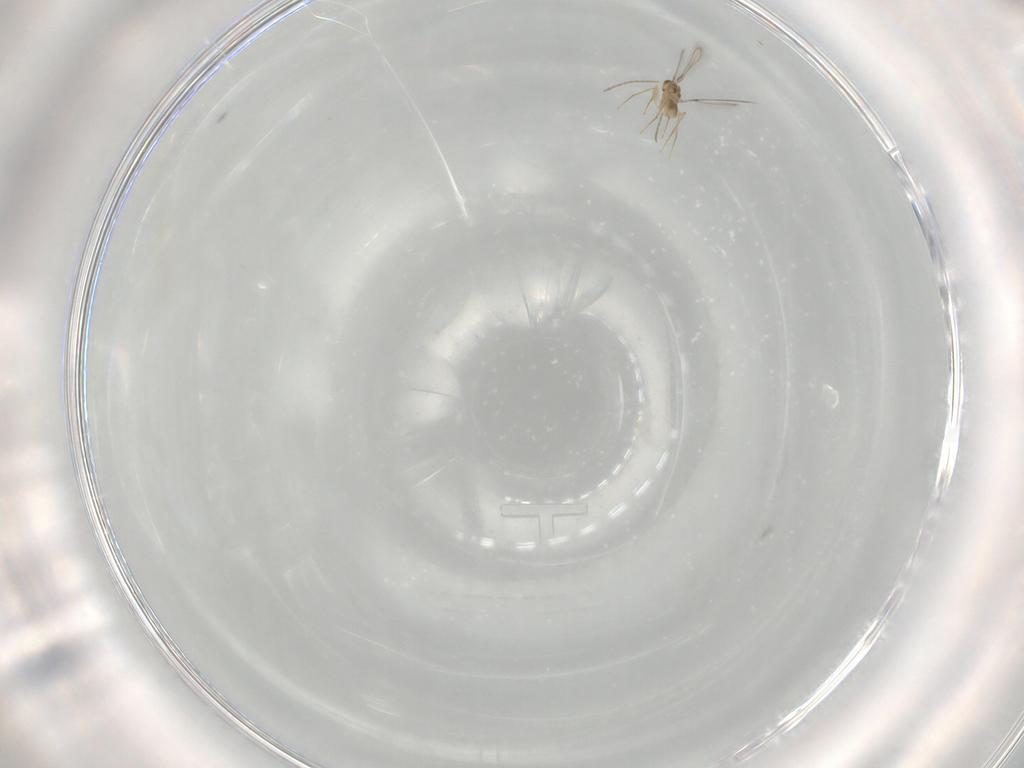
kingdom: Animalia
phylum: Arthropoda
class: Insecta
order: Hymenoptera
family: Mymaridae
